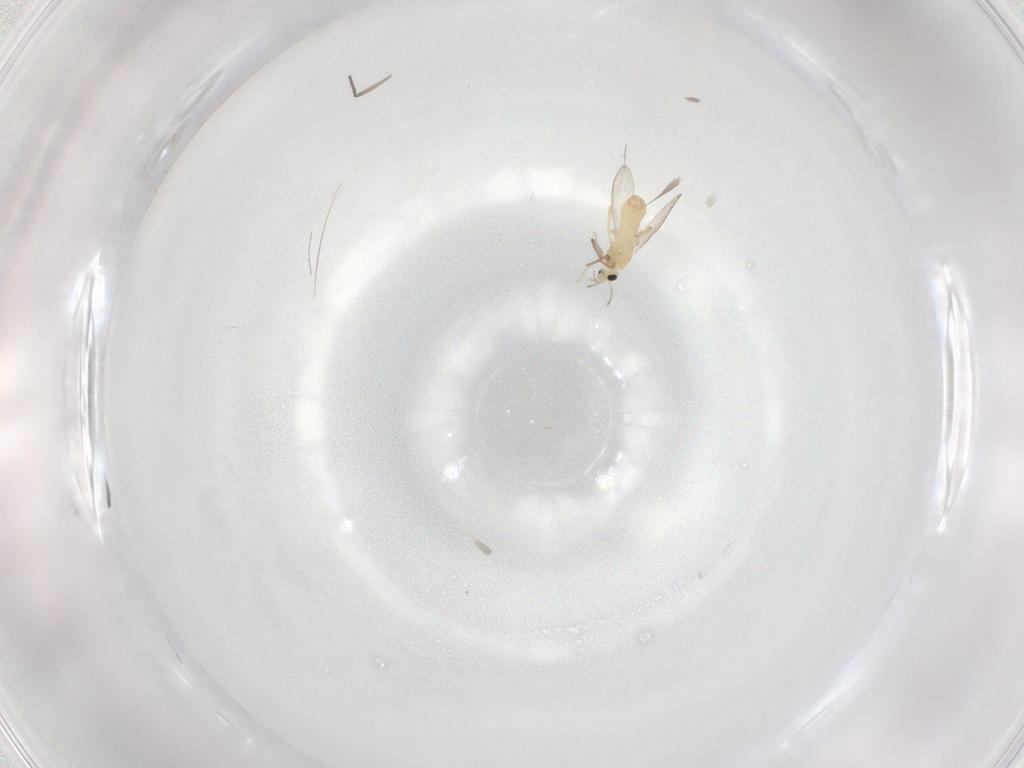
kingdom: Animalia
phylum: Arthropoda
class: Insecta
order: Diptera
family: Chironomidae
